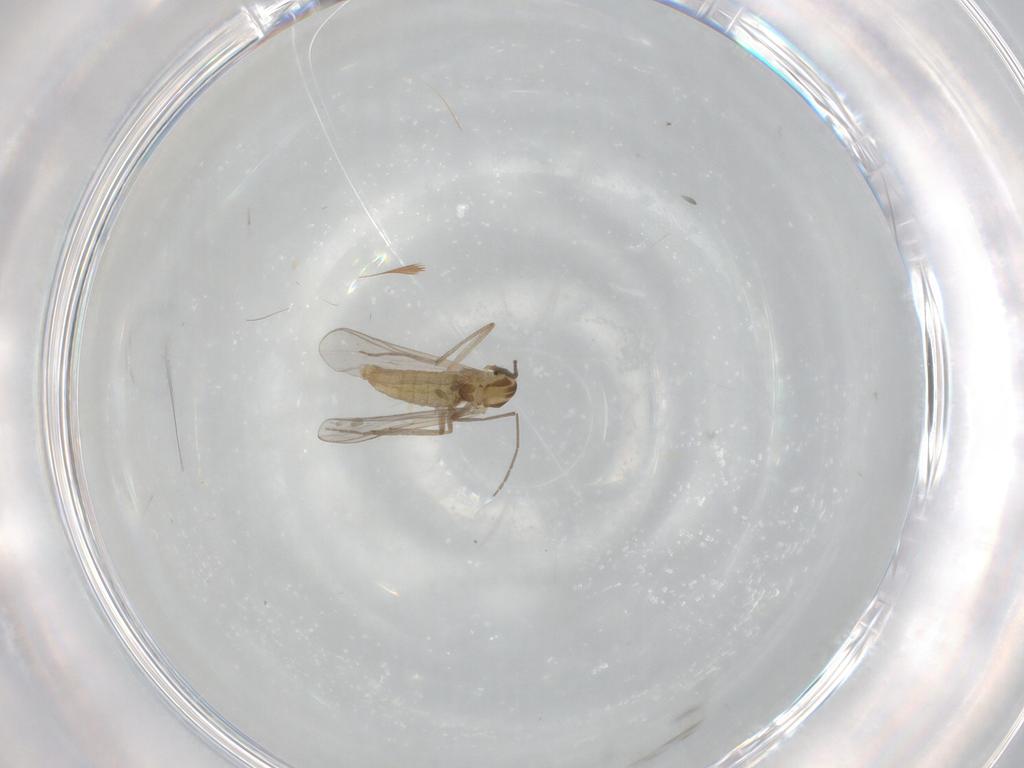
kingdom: Animalia
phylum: Arthropoda
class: Insecta
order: Diptera
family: Chironomidae
